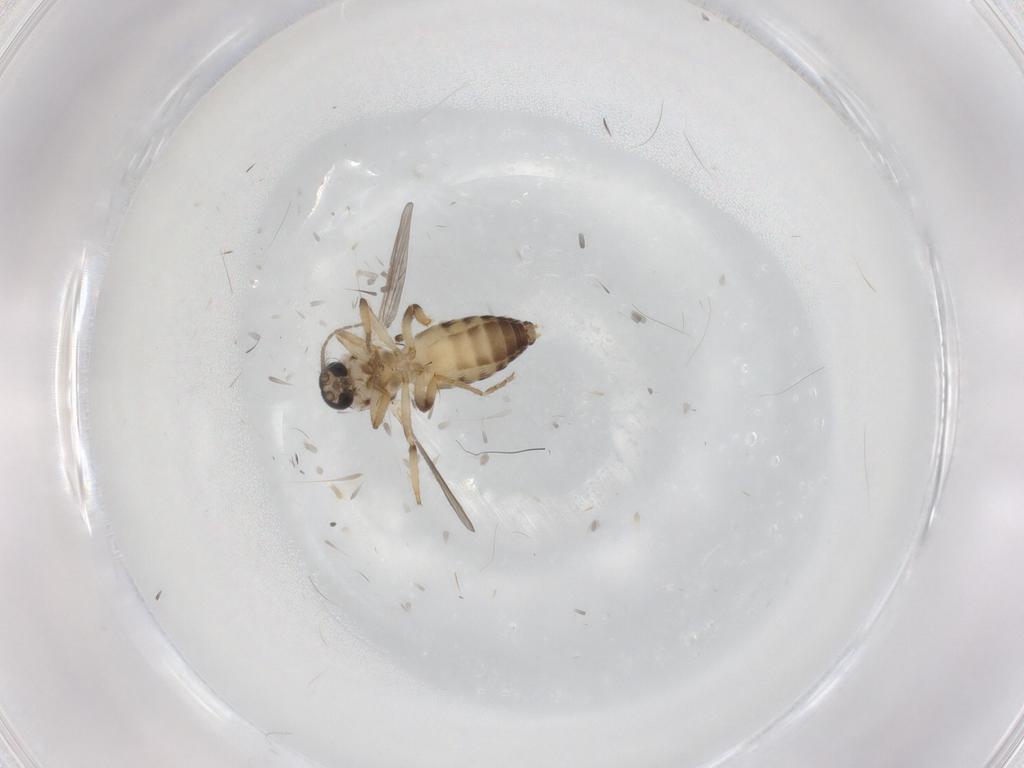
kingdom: Animalia
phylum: Arthropoda
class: Insecta
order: Diptera
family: Ceratopogonidae
